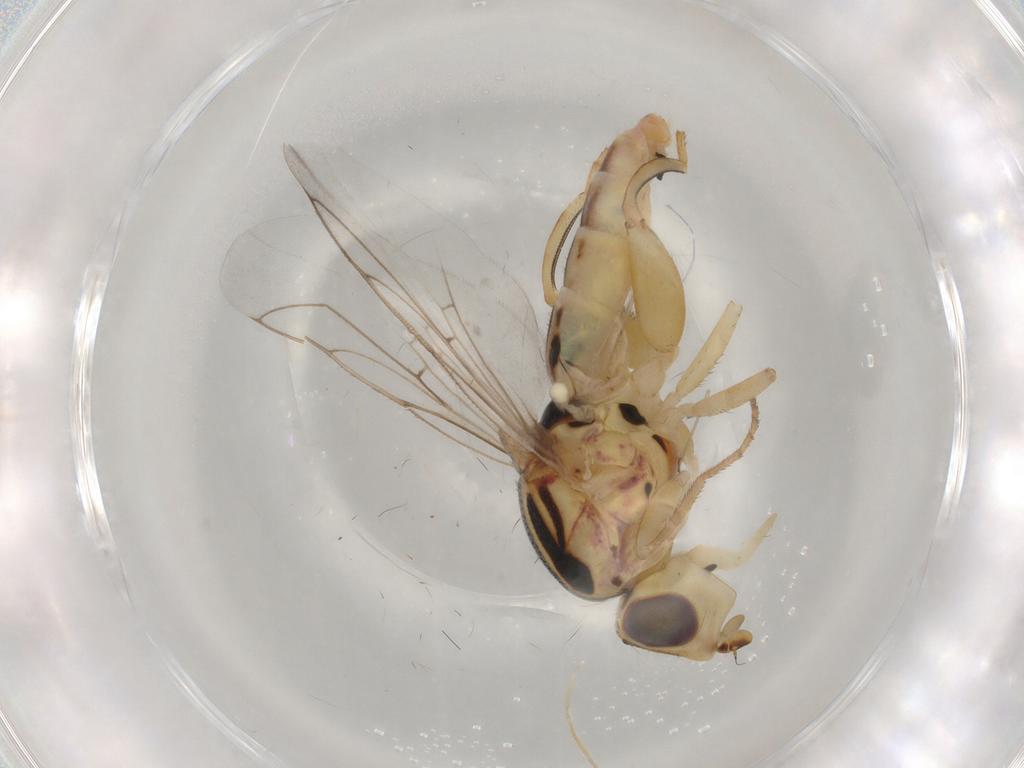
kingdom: Animalia
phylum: Arthropoda
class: Insecta
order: Diptera
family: Chloropidae
